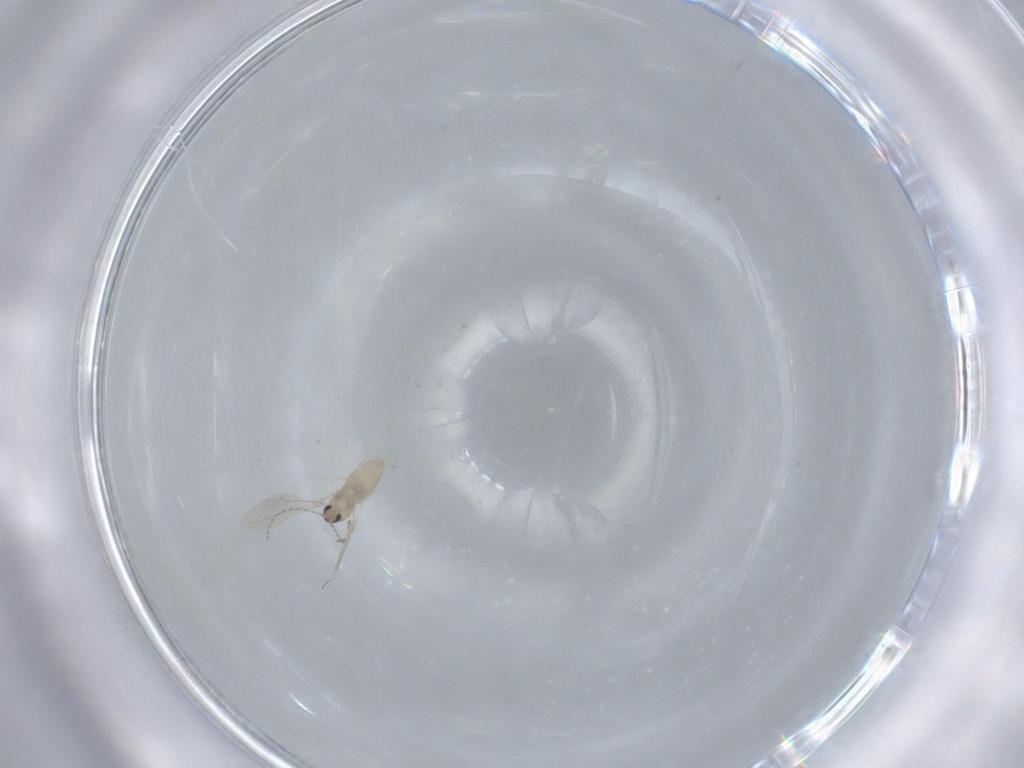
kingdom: Animalia
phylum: Arthropoda
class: Insecta
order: Diptera
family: Cecidomyiidae
